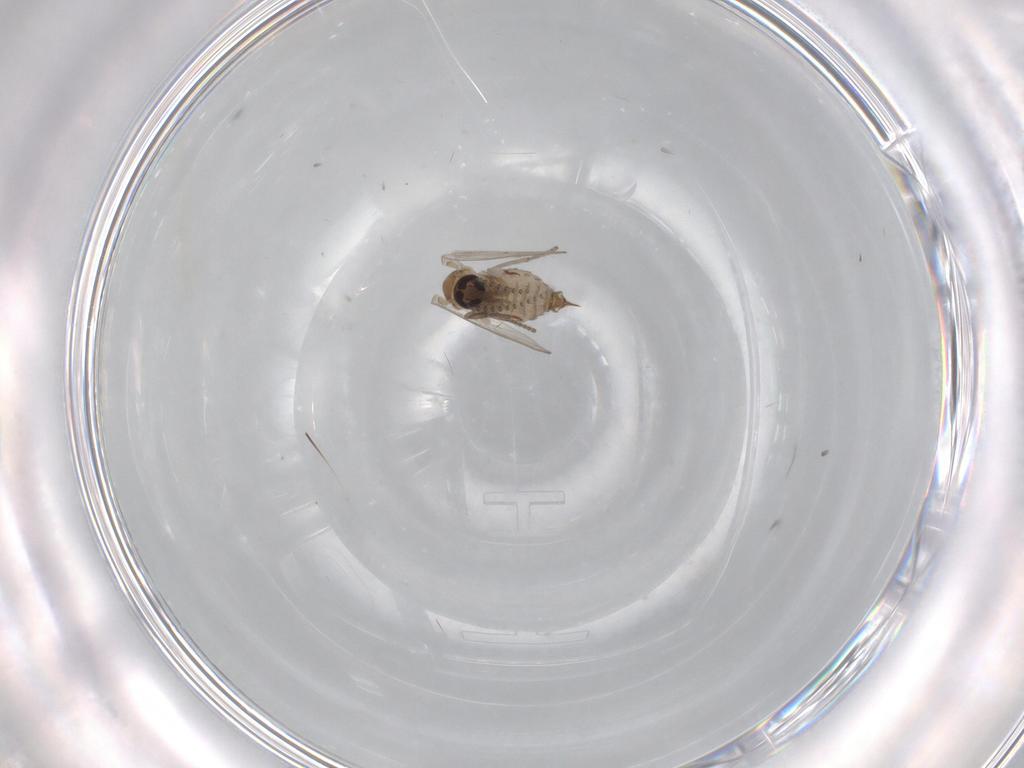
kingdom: Animalia
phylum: Arthropoda
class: Insecta
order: Diptera
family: Psychodidae
